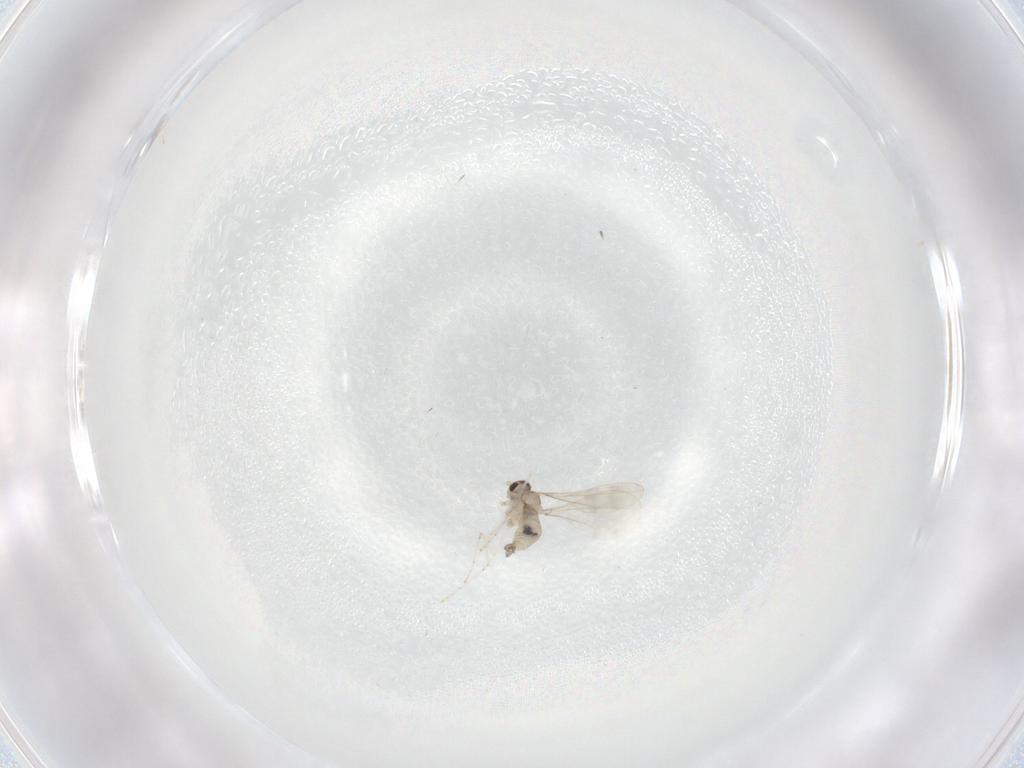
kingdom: Animalia
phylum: Arthropoda
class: Insecta
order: Diptera
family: Cecidomyiidae
